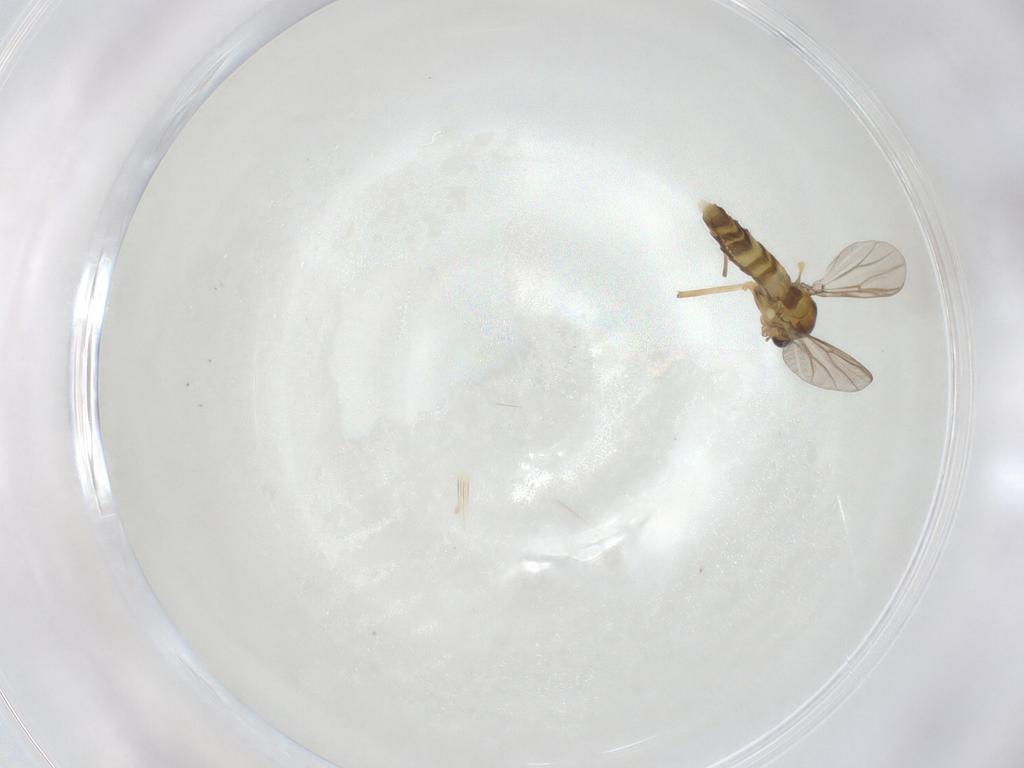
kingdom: Animalia
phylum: Arthropoda
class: Insecta
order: Diptera
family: Chironomidae
